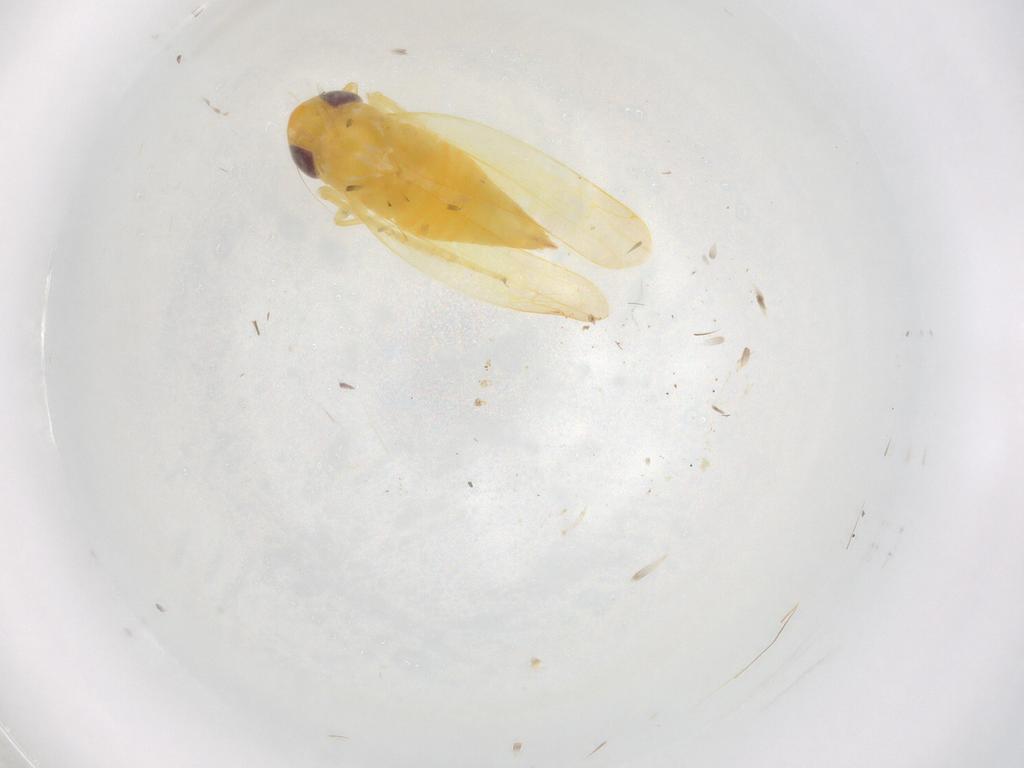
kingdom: Animalia
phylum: Arthropoda
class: Insecta
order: Hemiptera
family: Cicadellidae
